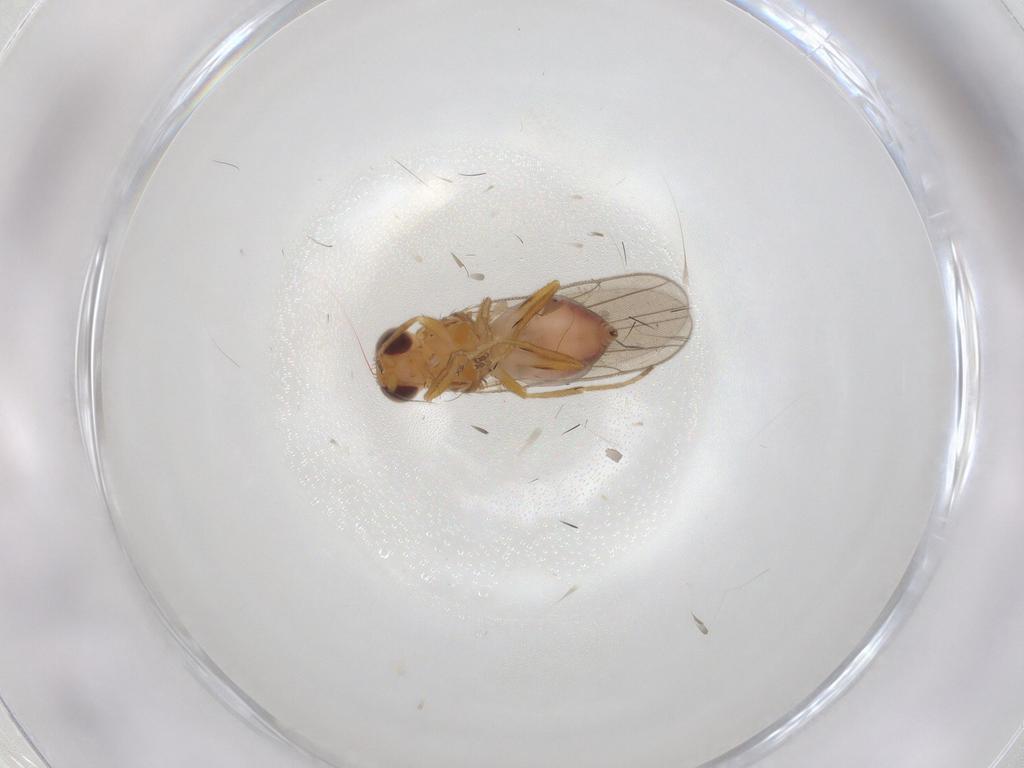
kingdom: Animalia
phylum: Arthropoda
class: Insecta
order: Diptera
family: Chloropidae
